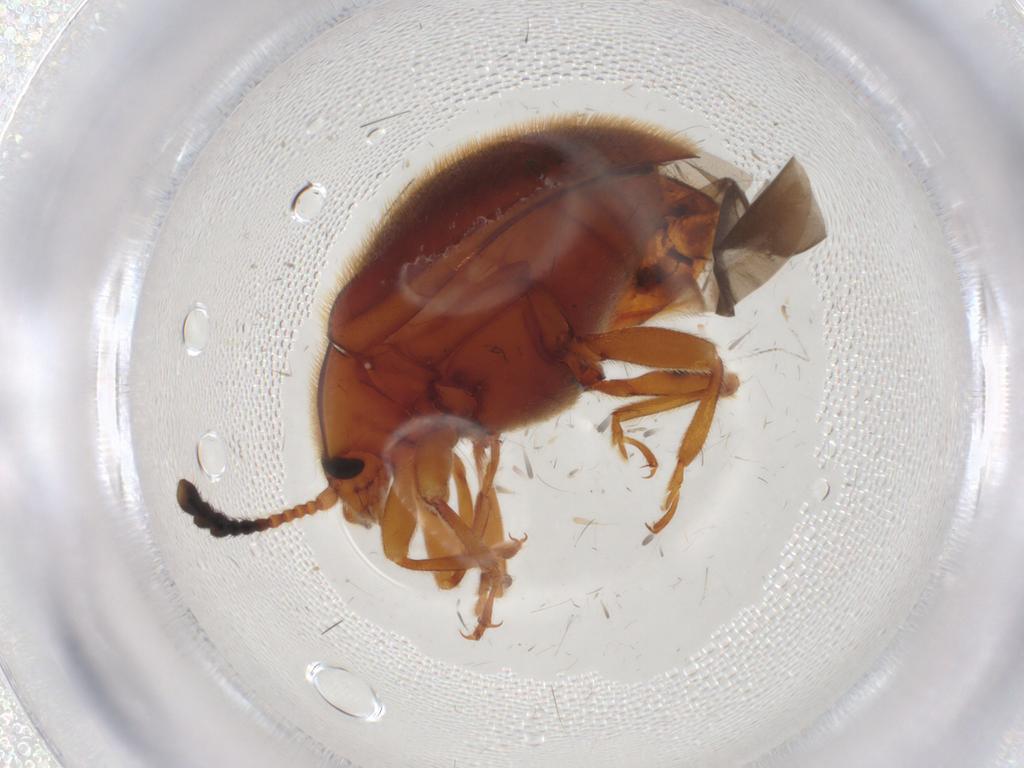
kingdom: Animalia
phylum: Arthropoda
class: Insecta
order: Coleoptera
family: Endomychidae
